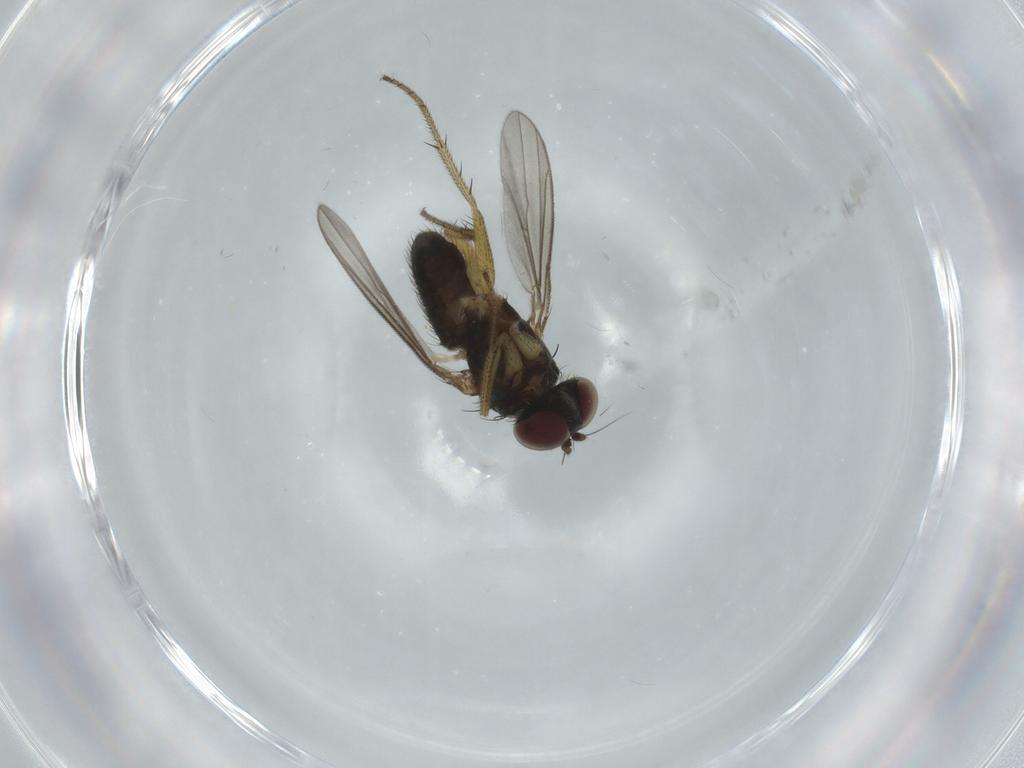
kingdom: Animalia
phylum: Arthropoda
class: Insecta
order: Diptera
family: Dolichopodidae
